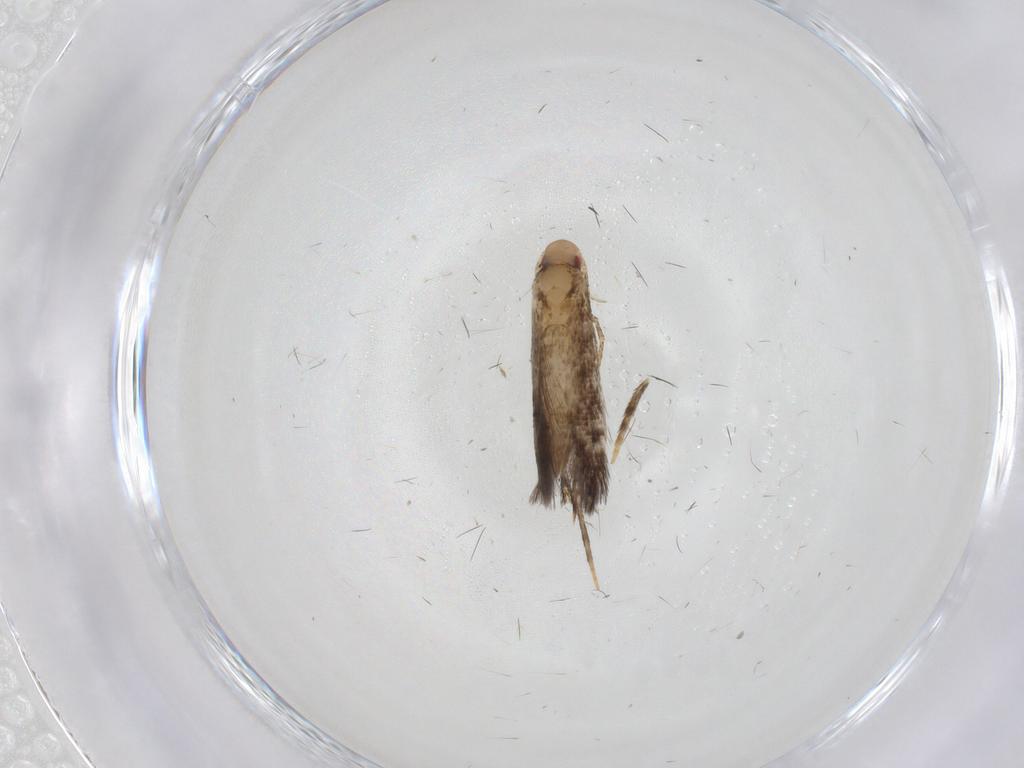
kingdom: Animalia
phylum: Arthropoda
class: Insecta
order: Lepidoptera
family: Momphidae
